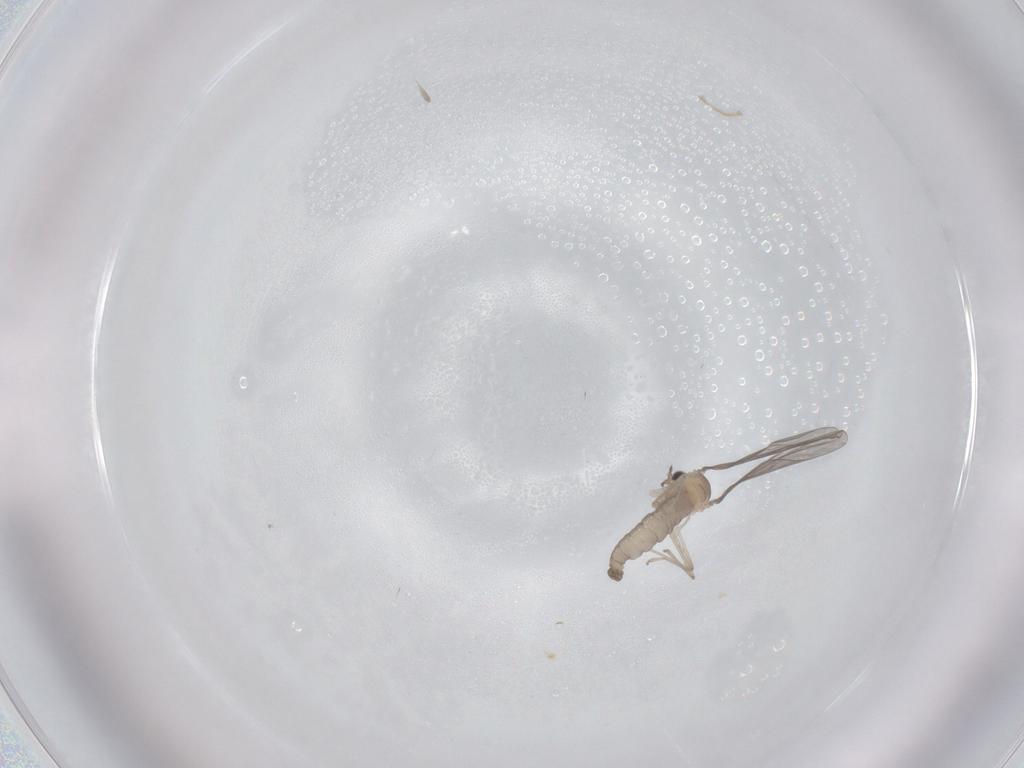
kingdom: Animalia
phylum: Arthropoda
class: Insecta
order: Diptera
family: Cecidomyiidae
